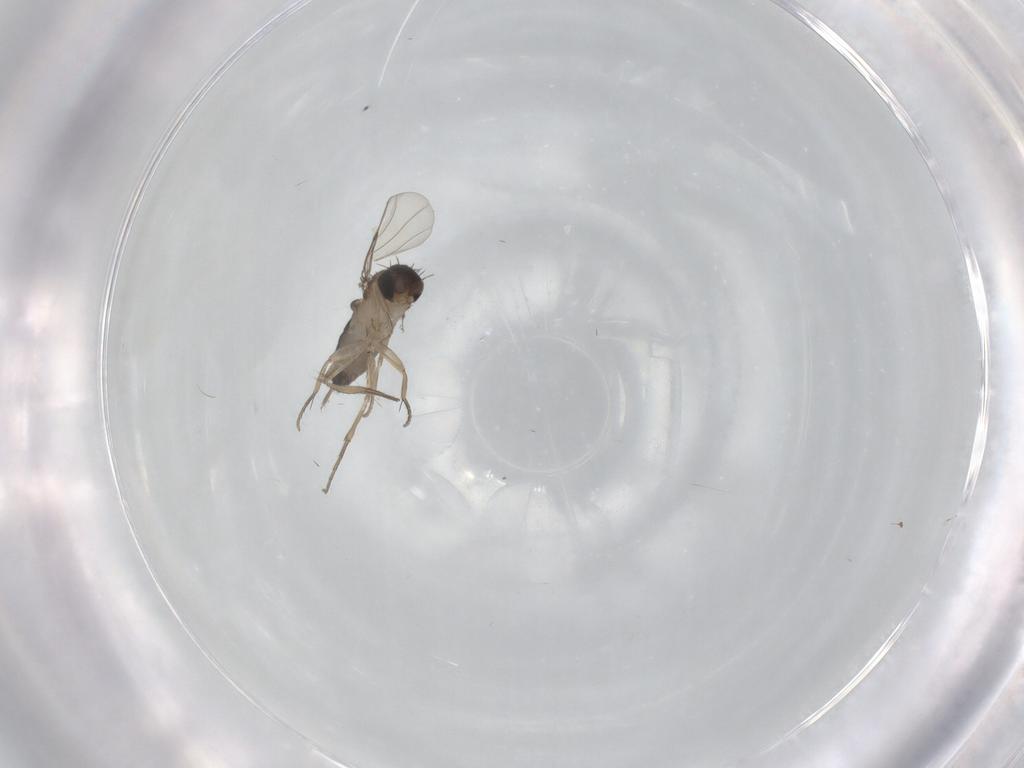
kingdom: Animalia
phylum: Arthropoda
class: Insecta
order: Diptera
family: Phoridae
